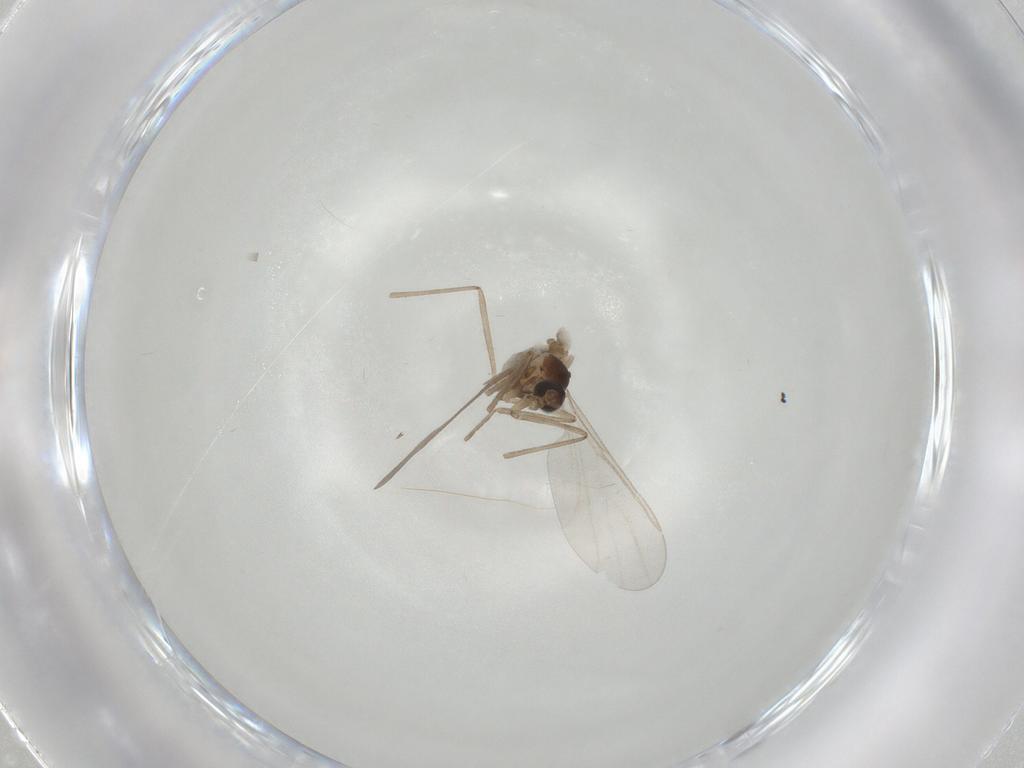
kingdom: Animalia
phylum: Arthropoda
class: Insecta
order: Diptera
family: Cecidomyiidae
